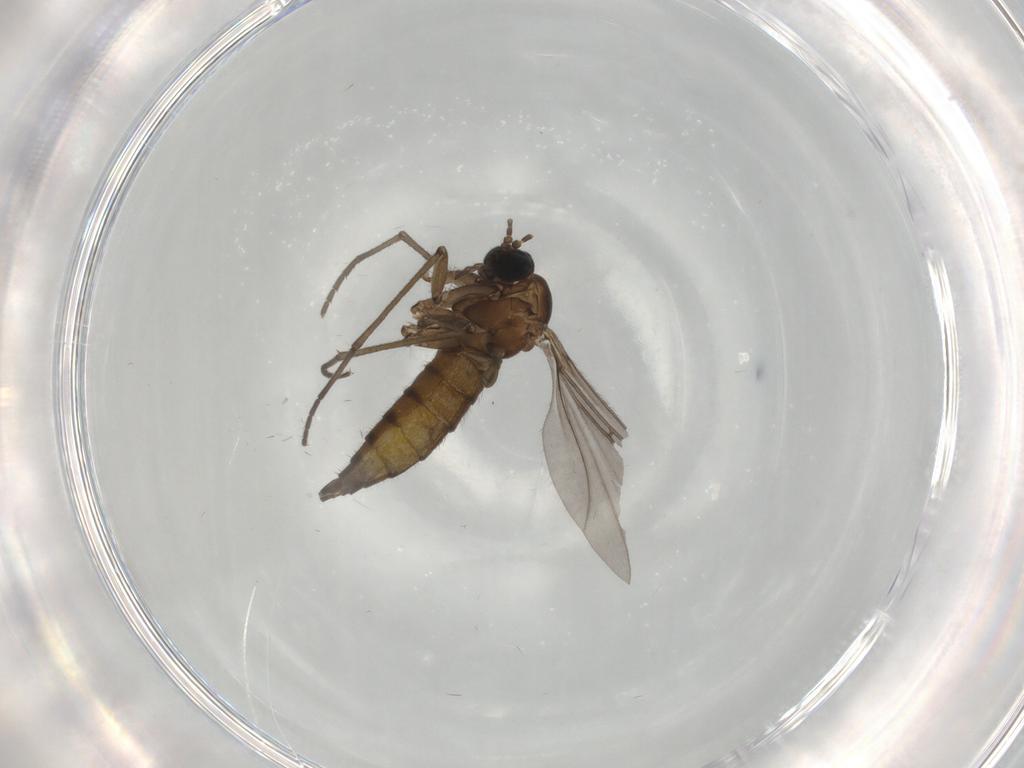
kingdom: Animalia
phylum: Arthropoda
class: Insecta
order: Diptera
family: Sciaridae
